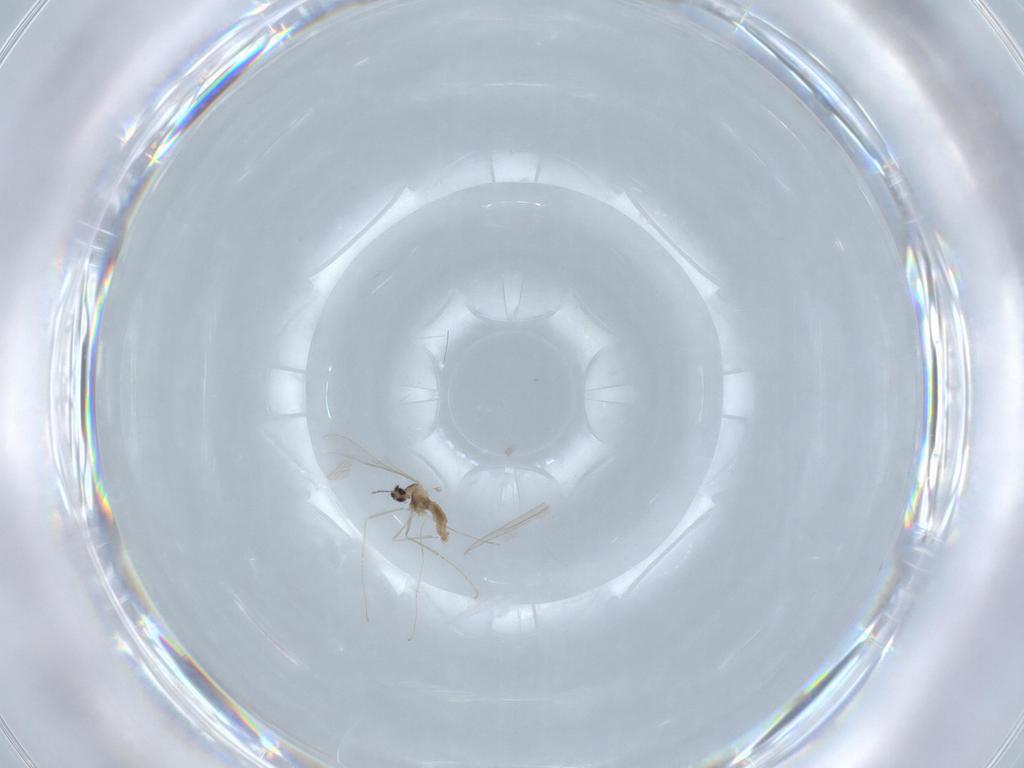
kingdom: Animalia
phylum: Arthropoda
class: Insecta
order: Diptera
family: Chironomidae
